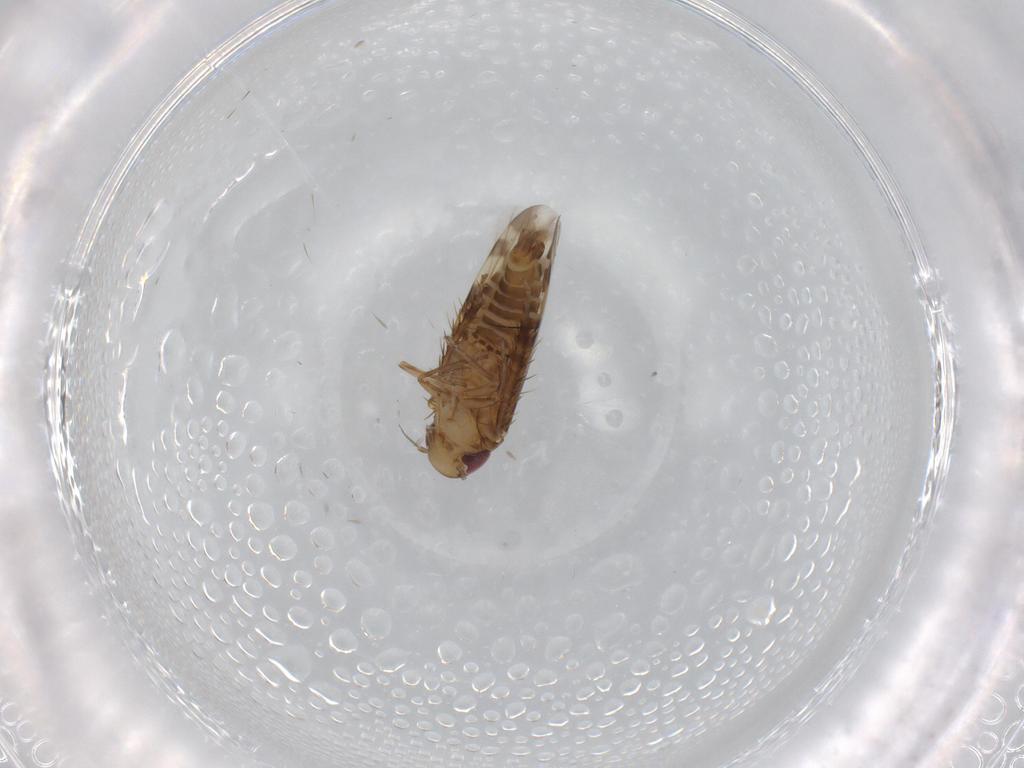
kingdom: Animalia
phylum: Arthropoda
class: Insecta
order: Hemiptera
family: Cicadellidae
